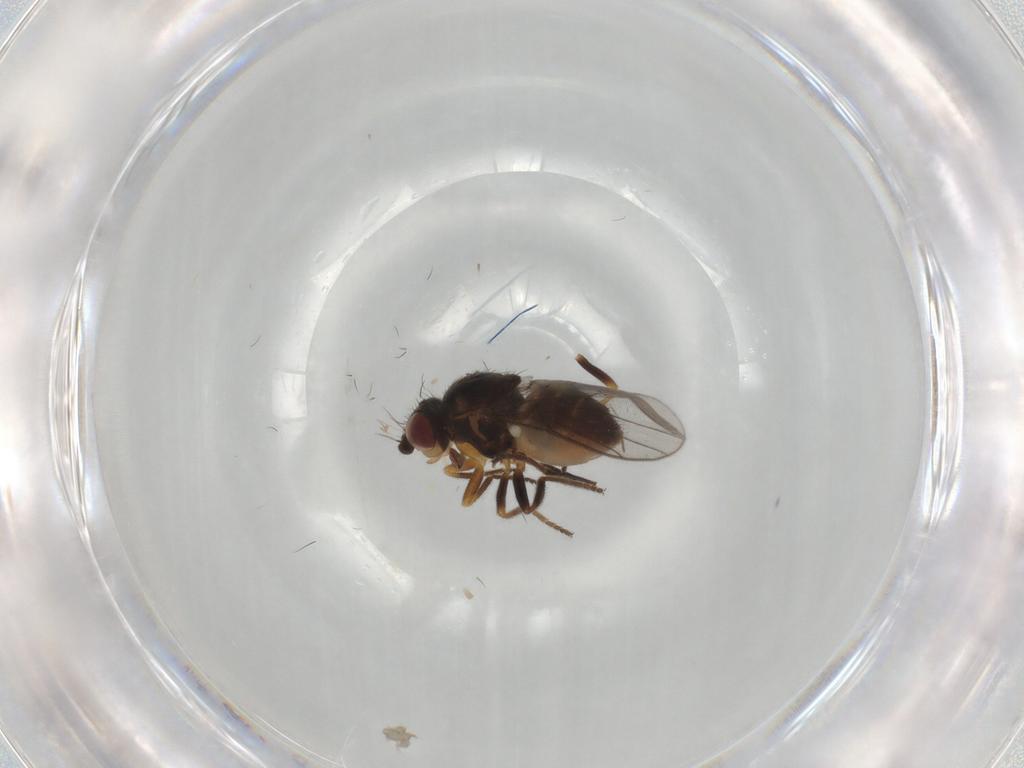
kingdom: Animalia
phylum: Arthropoda
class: Insecta
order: Diptera
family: Chloropidae
